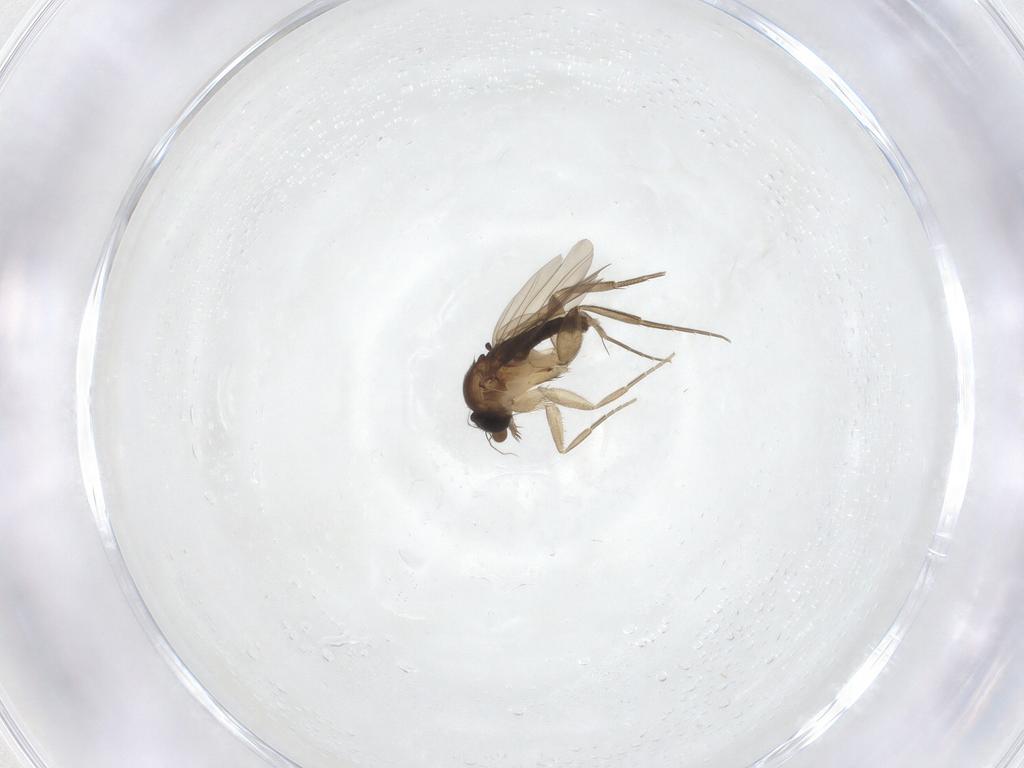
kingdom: Animalia
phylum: Arthropoda
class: Insecta
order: Diptera
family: Phoridae
